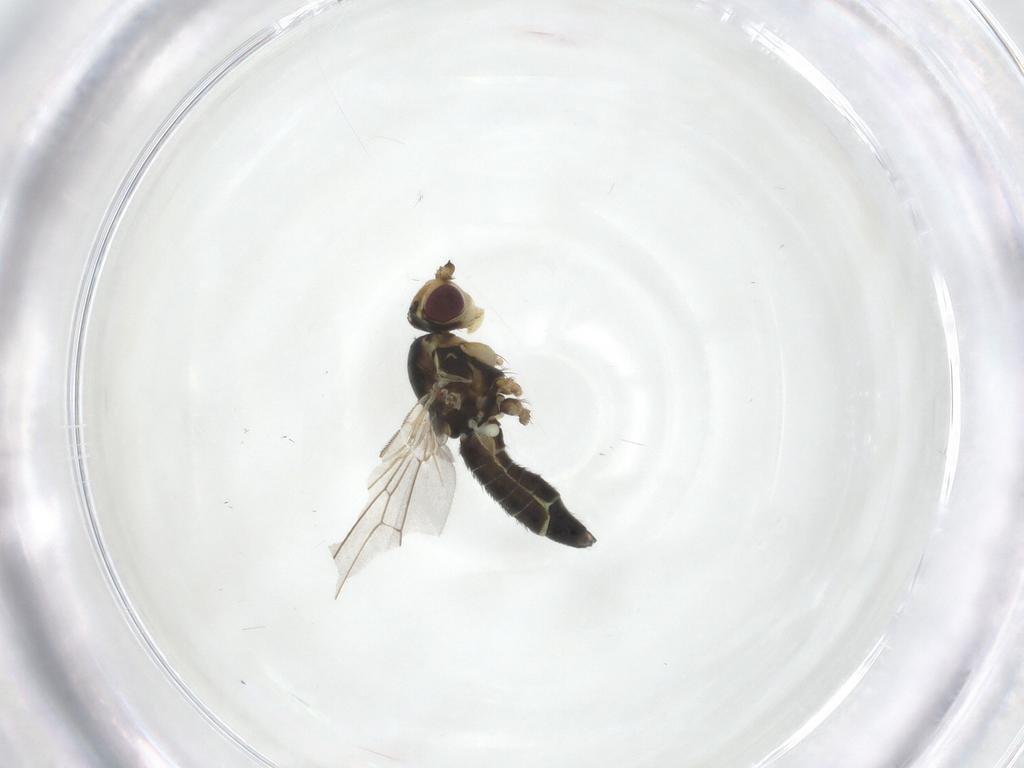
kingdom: Animalia
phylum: Arthropoda
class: Insecta
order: Diptera
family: Agromyzidae
